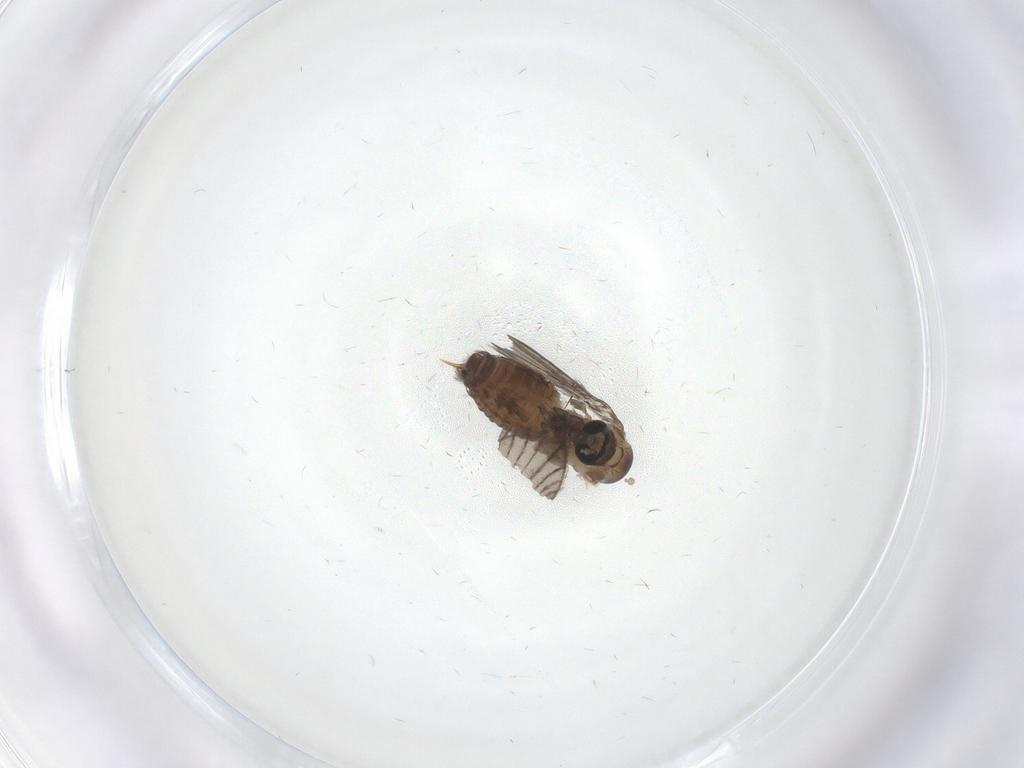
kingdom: Animalia
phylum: Arthropoda
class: Insecta
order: Diptera
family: Psychodidae
